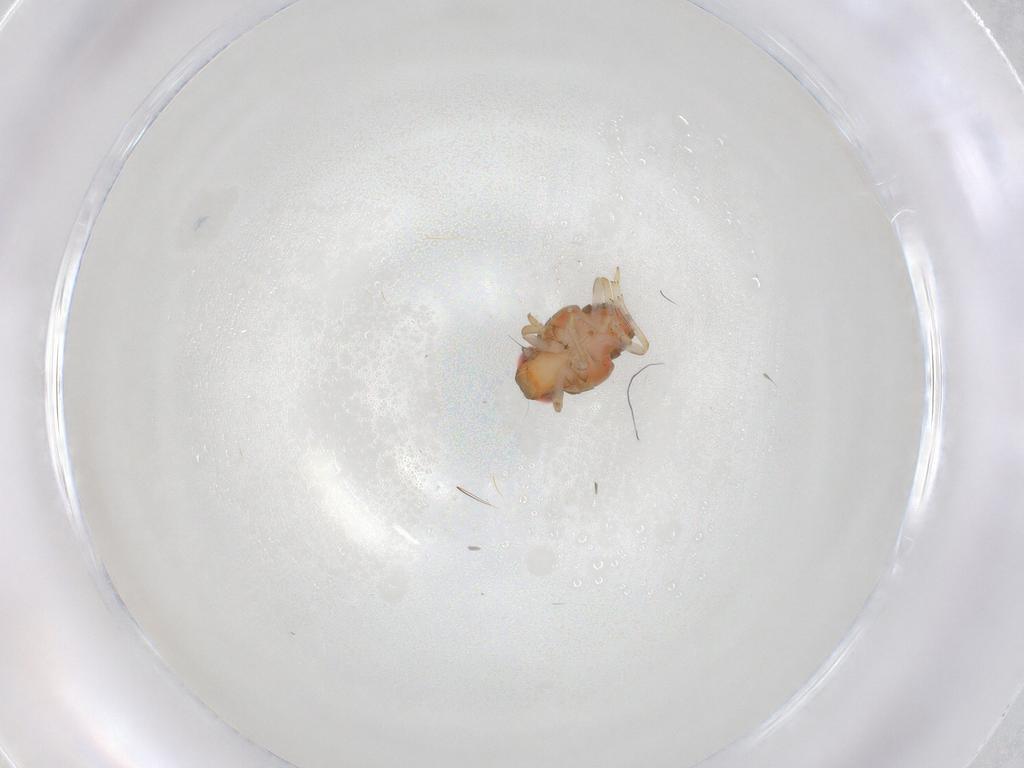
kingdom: Animalia
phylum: Arthropoda
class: Insecta
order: Hemiptera
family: Issidae
